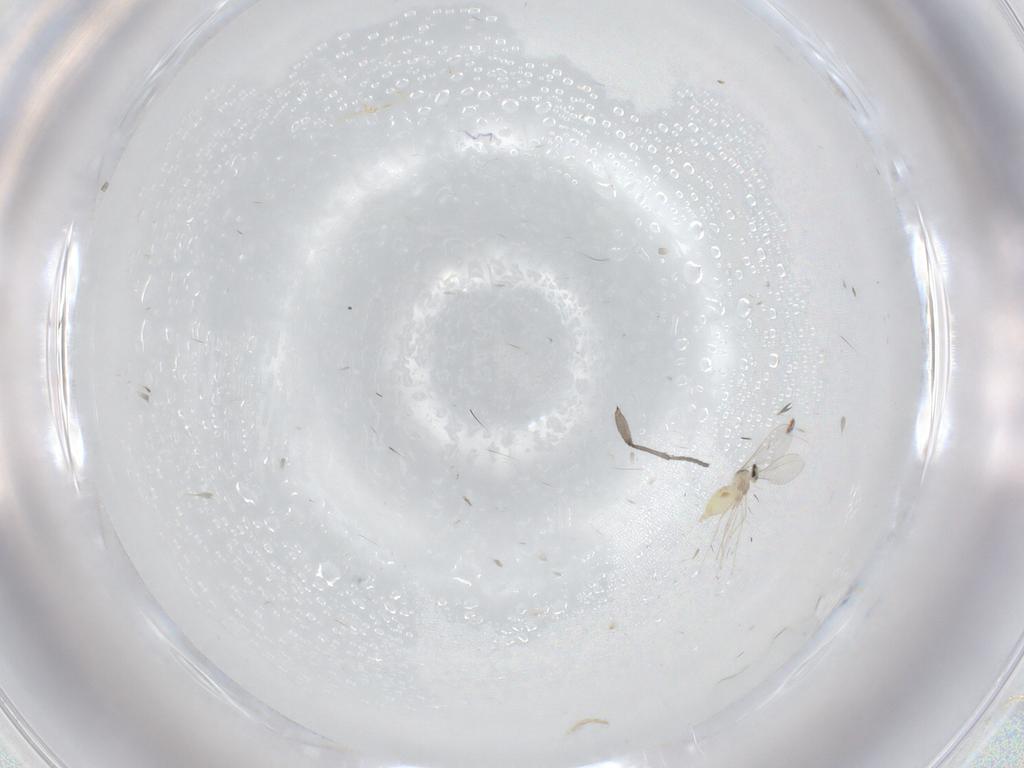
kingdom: Animalia
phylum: Arthropoda
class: Insecta
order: Diptera
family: Cecidomyiidae
